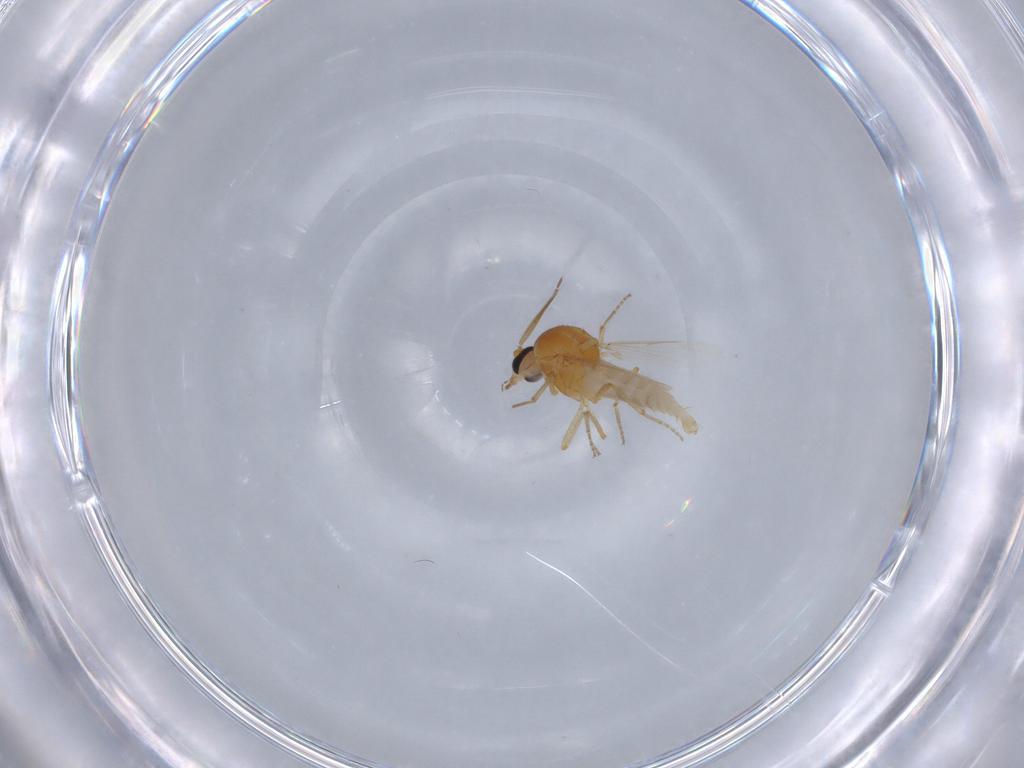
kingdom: Animalia
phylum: Arthropoda
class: Insecta
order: Diptera
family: Ceratopogonidae
